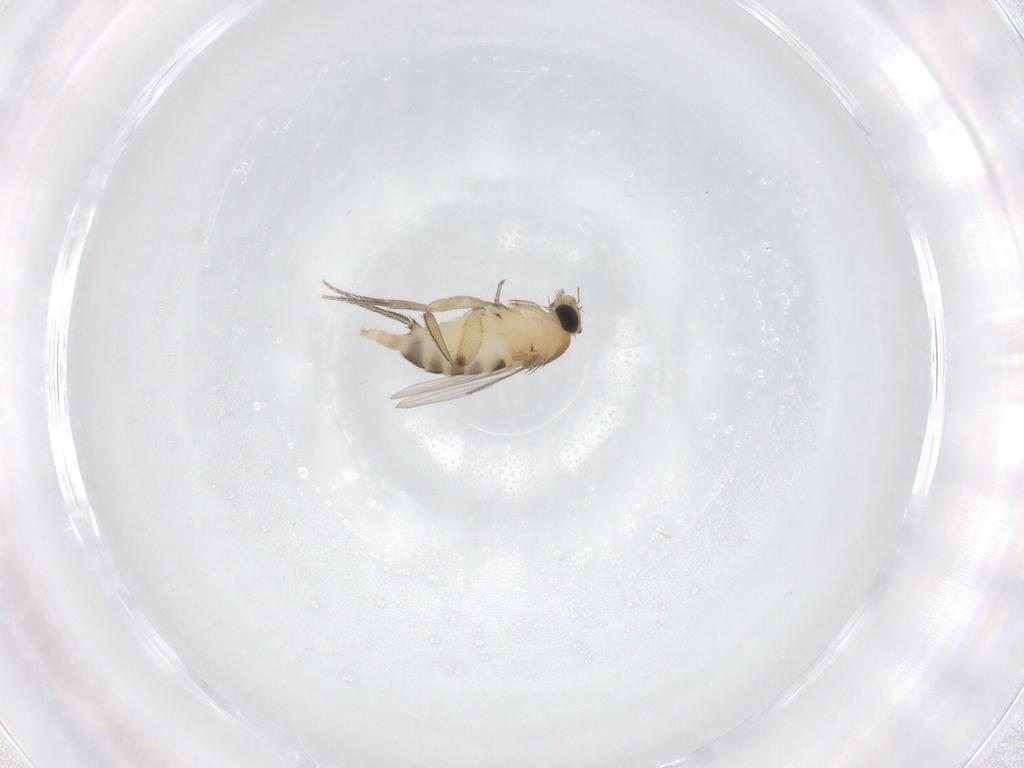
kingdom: Animalia
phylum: Arthropoda
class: Insecta
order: Diptera
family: Phoridae
